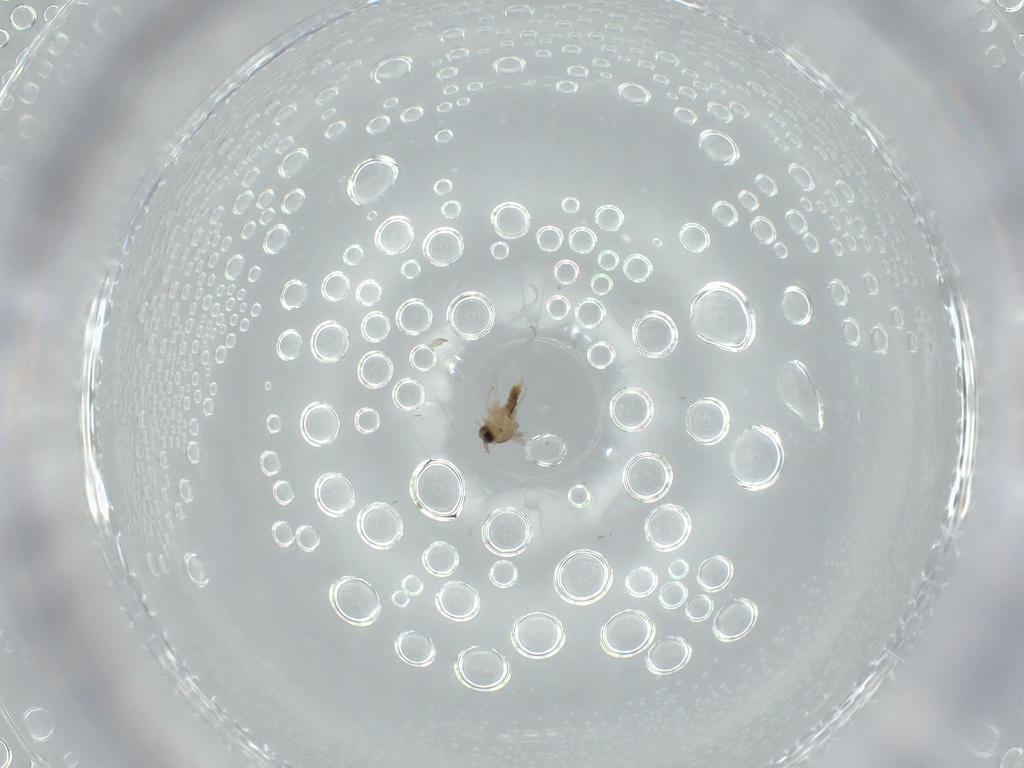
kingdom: Animalia
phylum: Arthropoda
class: Insecta
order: Diptera
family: Cecidomyiidae
